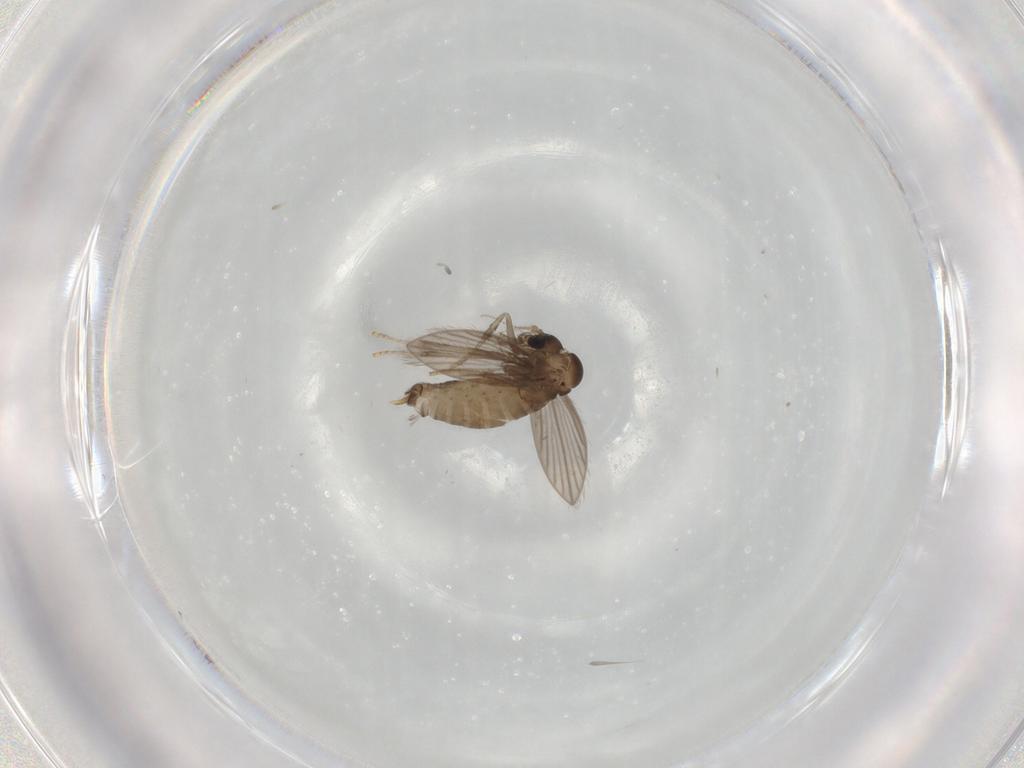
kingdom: Animalia
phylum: Arthropoda
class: Insecta
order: Diptera
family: Psychodidae
